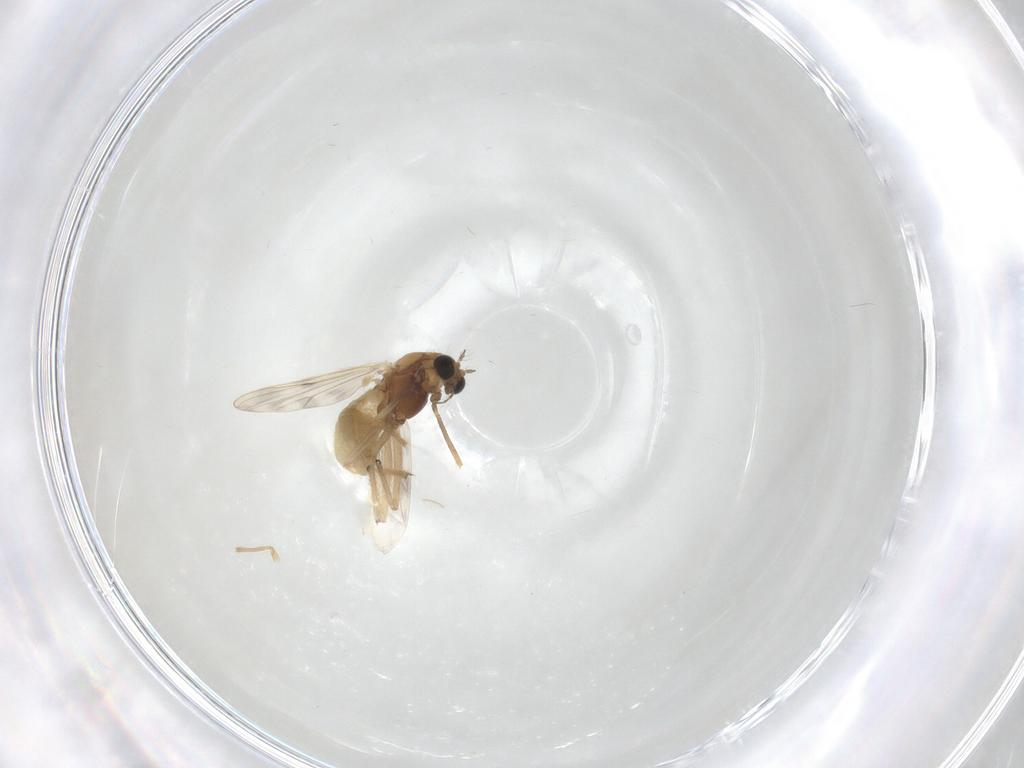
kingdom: Animalia
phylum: Arthropoda
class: Insecta
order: Diptera
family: Chironomidae
